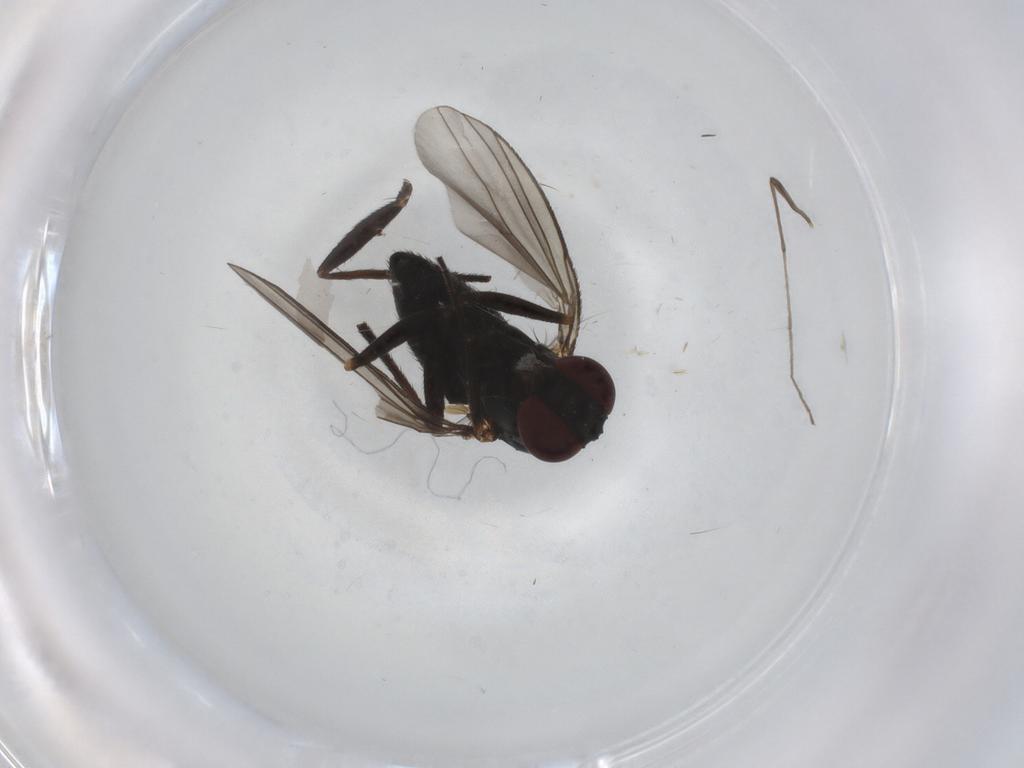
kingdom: Animalia
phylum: Arthropoda
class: Insecta
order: Diptera
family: Dolichopodidae
